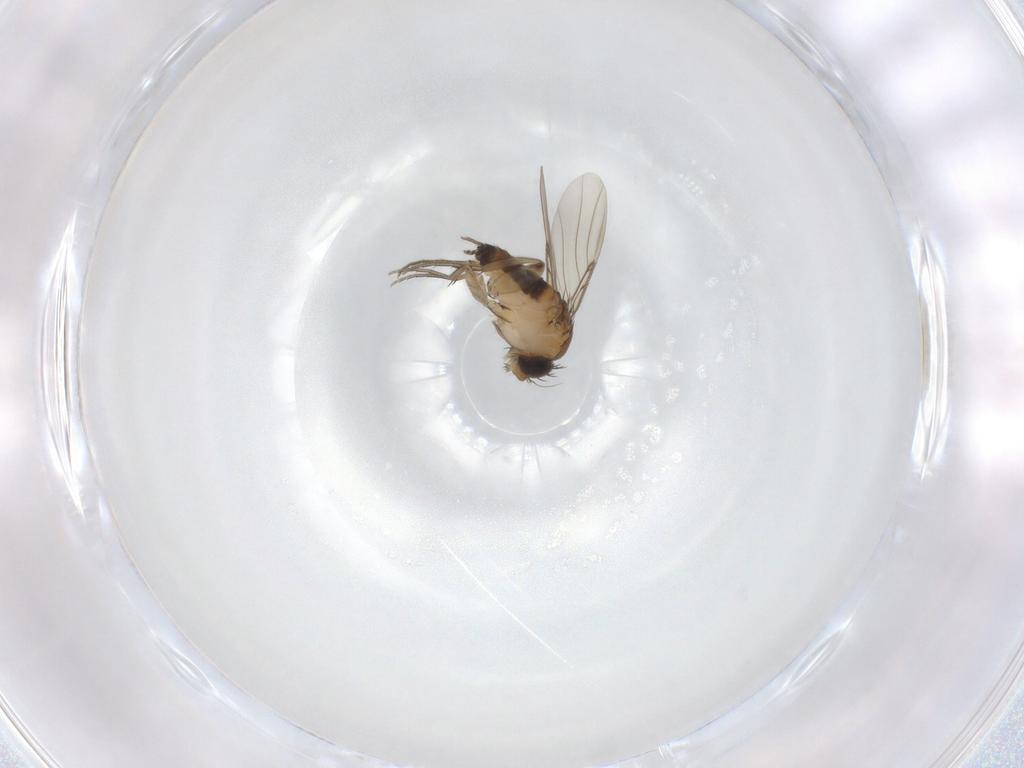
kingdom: Animalia
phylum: Arthropoda
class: Insecta
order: Diptera
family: Phoridae
